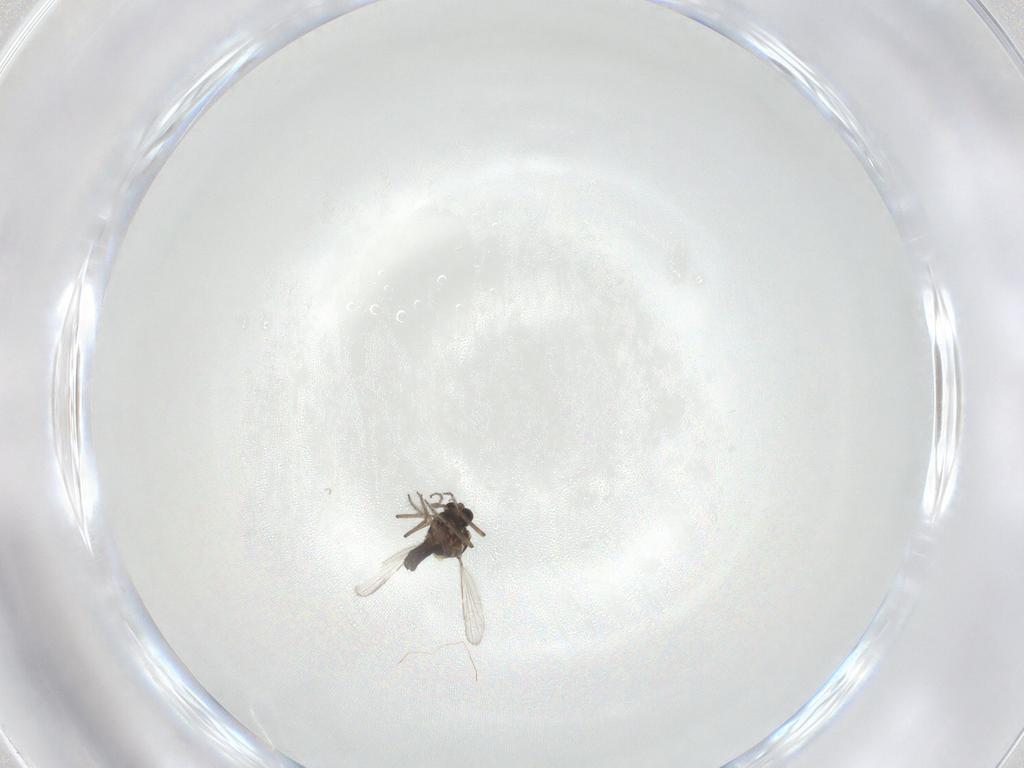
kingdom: Animalia
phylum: Arthropoda
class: Insecta
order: Diptera
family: Ceratopogonidae
